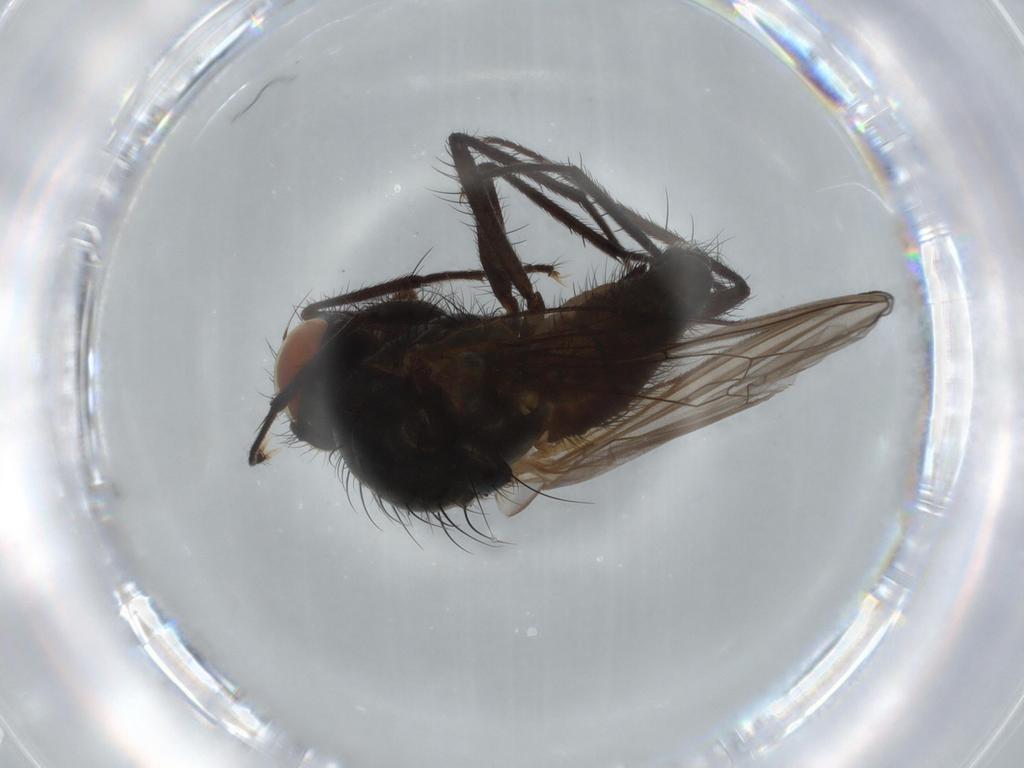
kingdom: Animalia
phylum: Arthropoda
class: Insecta
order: Diptera
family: Anthomyiidae
